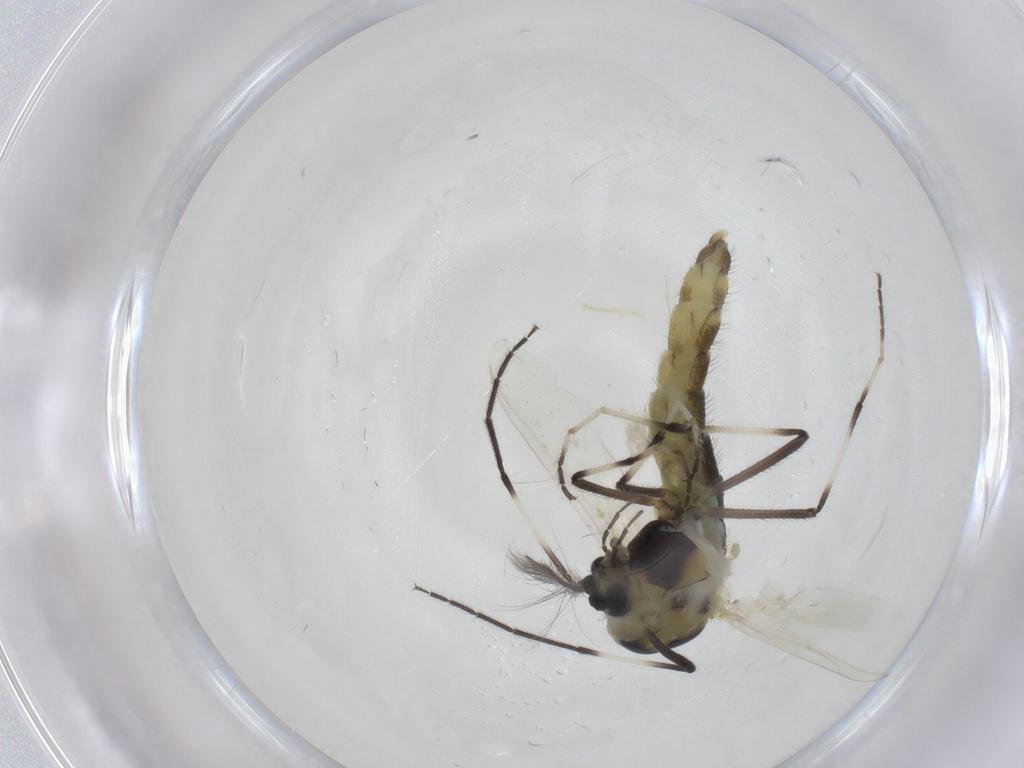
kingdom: Animalia
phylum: Arthropoda
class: Insecta
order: Diptera
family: Chironomidae
